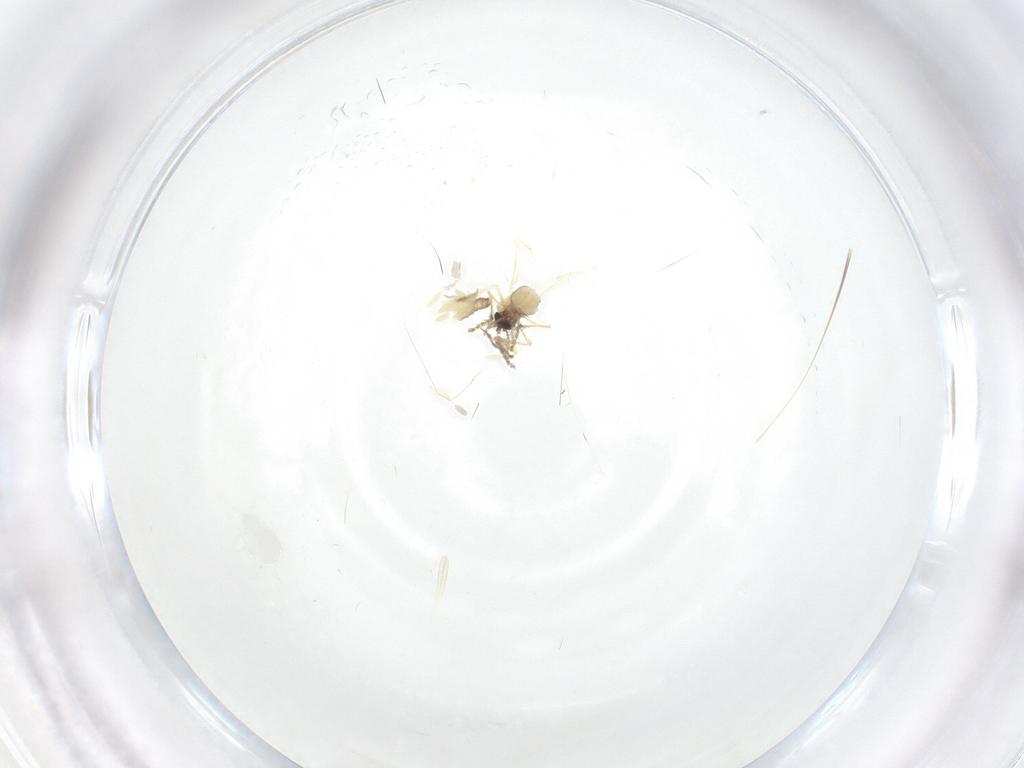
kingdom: Animalia
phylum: Arthropoda
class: Insecta
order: Diptera
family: Ceratopogonidae
